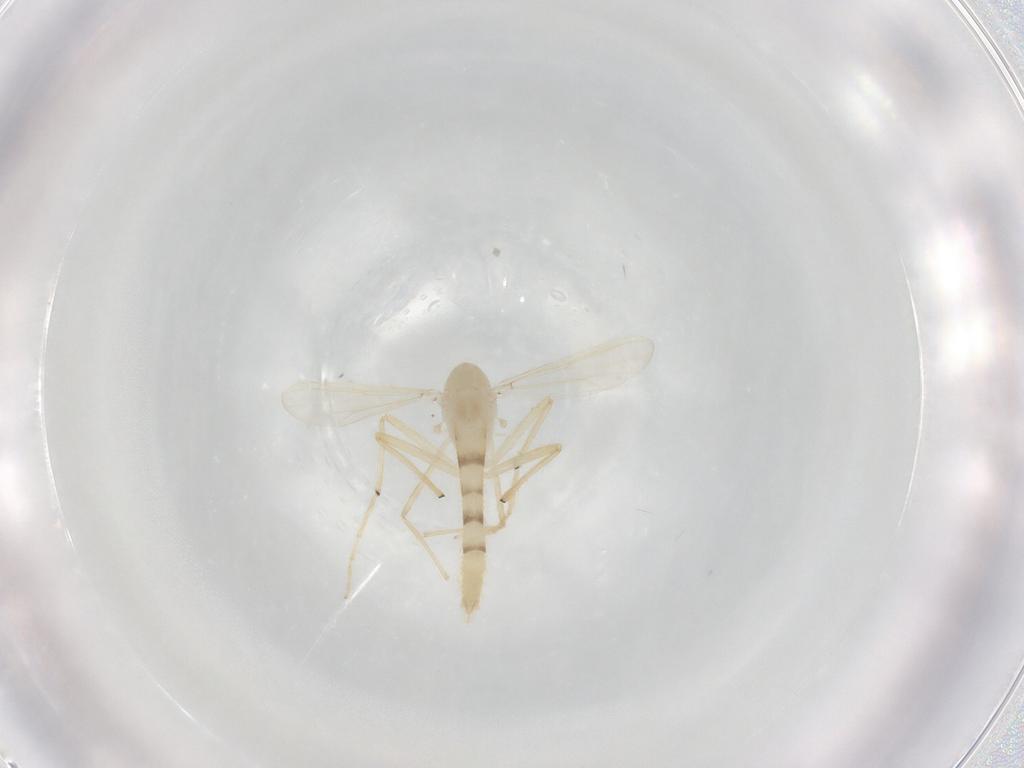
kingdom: Animalia
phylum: Arthropoda
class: Insecta
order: Diptera
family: Chironomidae
